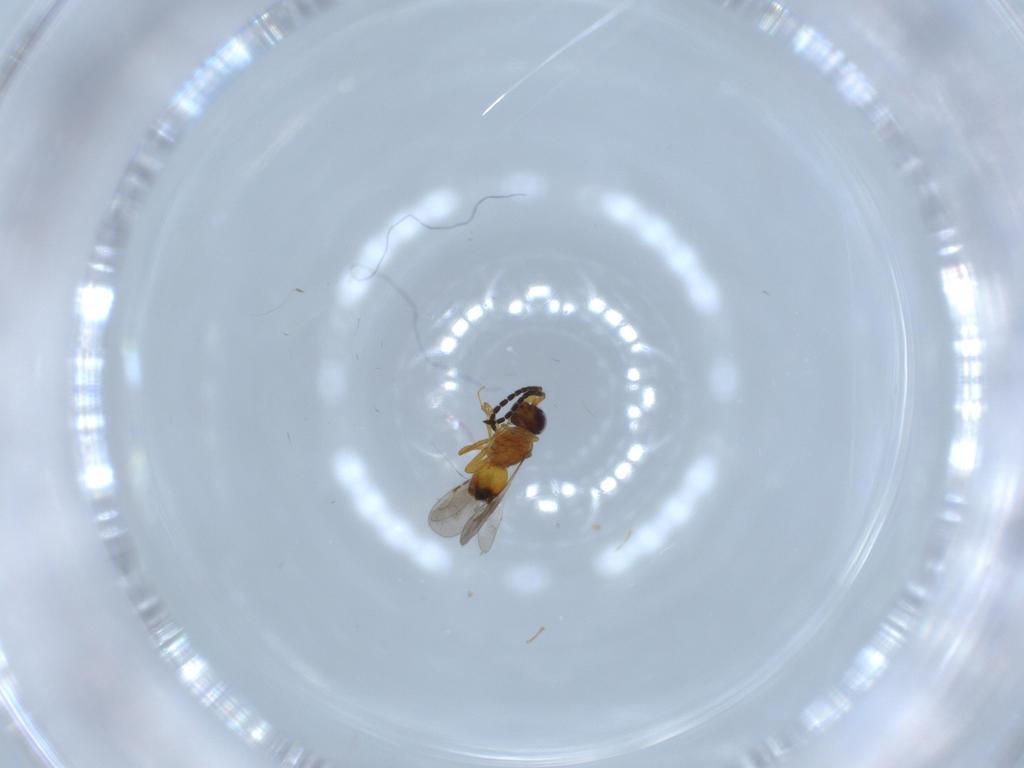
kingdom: Animalia
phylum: Arthropoda
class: Insecta
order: Hymenoptera
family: Ceraphronidae
